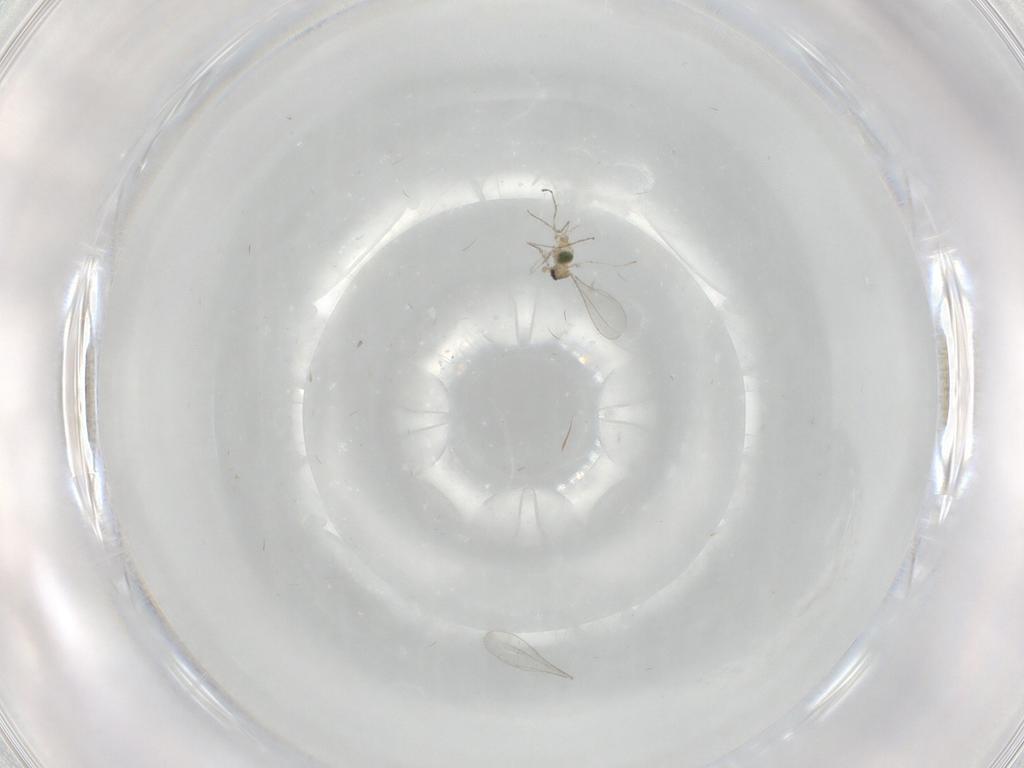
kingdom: Animalia
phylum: Arthropoda
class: Insecta
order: Diptera
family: Cecidomyiidae
